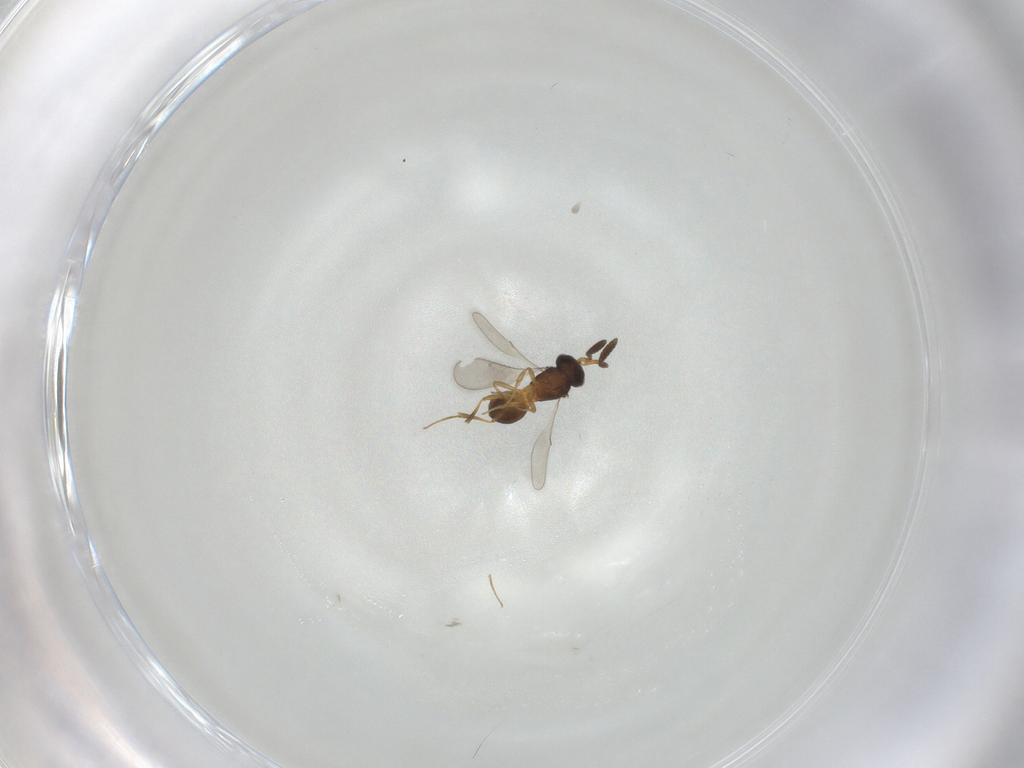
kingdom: Animalia
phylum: Arthropoda
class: Insecta
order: Hymenoptera
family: Scelionidae
